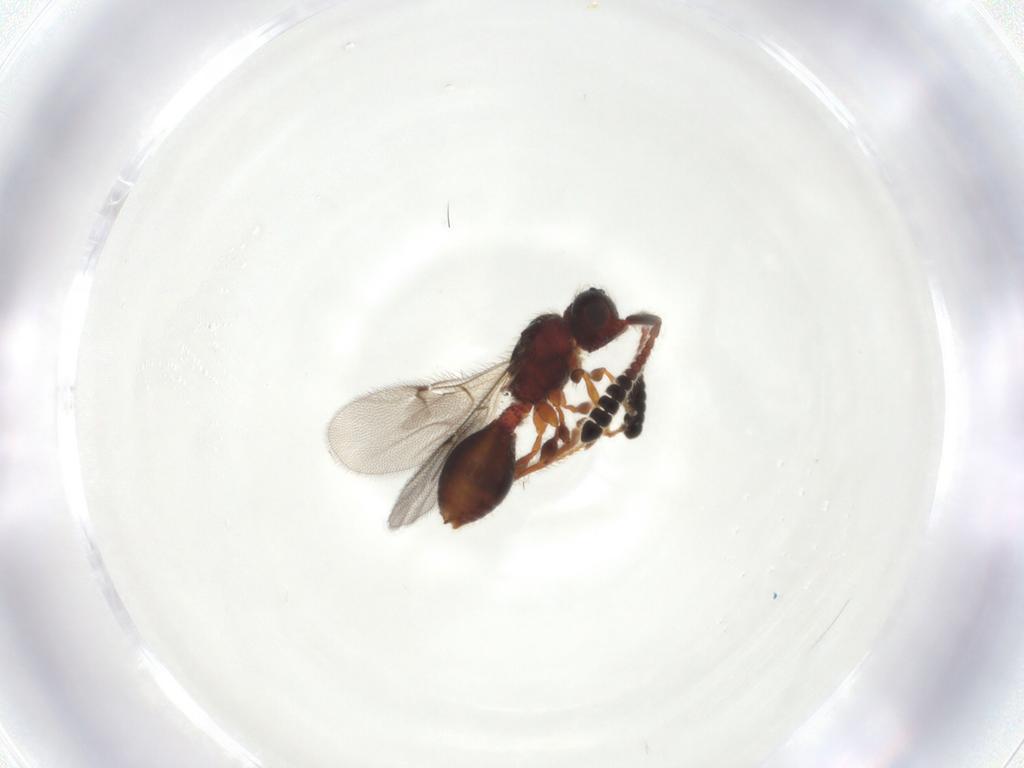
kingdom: Animalia
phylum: Arthropoda
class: Insecta
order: Hymenoptera
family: Diapriidae
